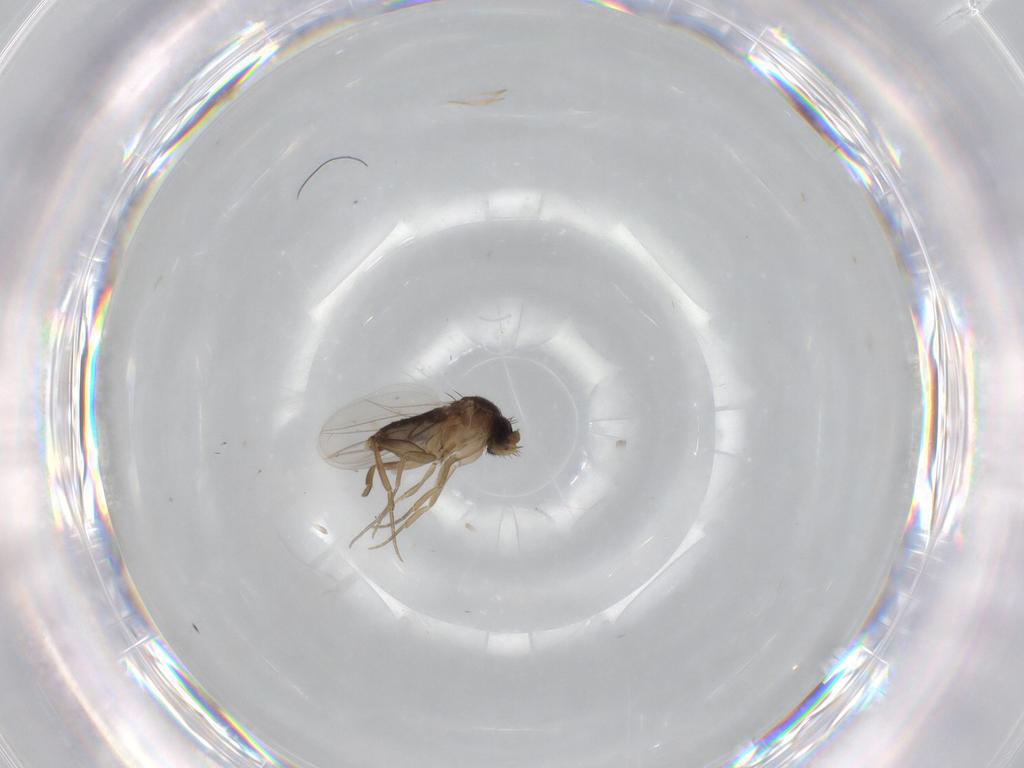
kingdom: Animalia
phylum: Arthropoda
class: Insecta
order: Diptera
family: Phoridae
